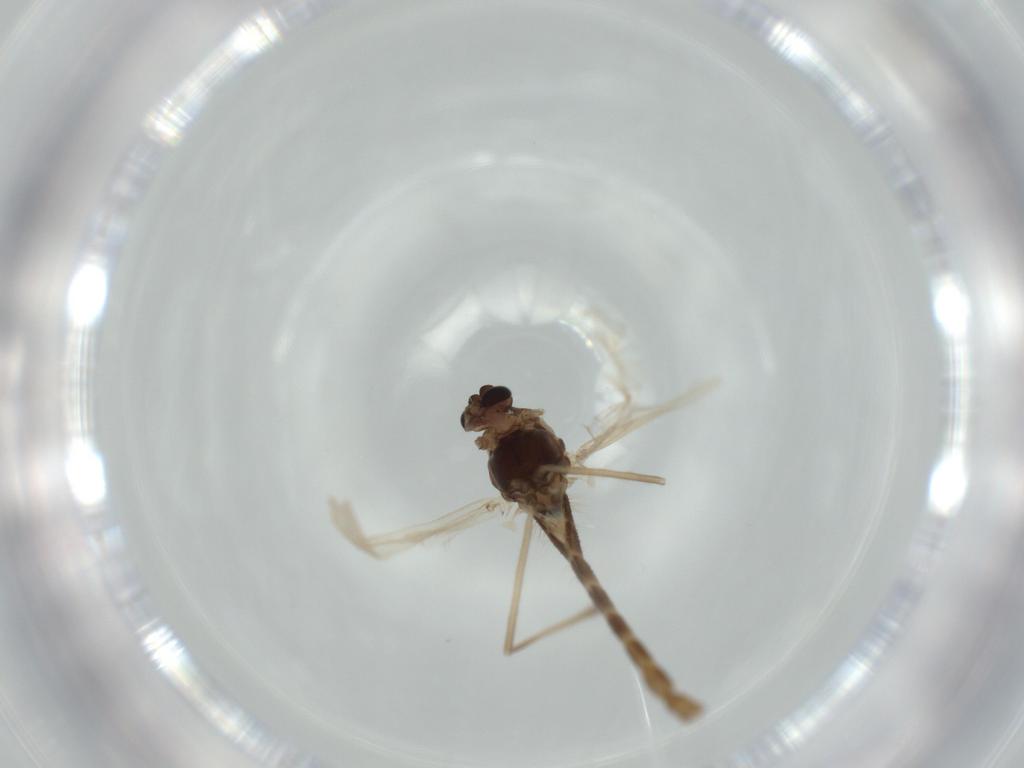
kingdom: Animalia
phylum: Arthropoda
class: Insecta
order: Diptera
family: Chironomidae
